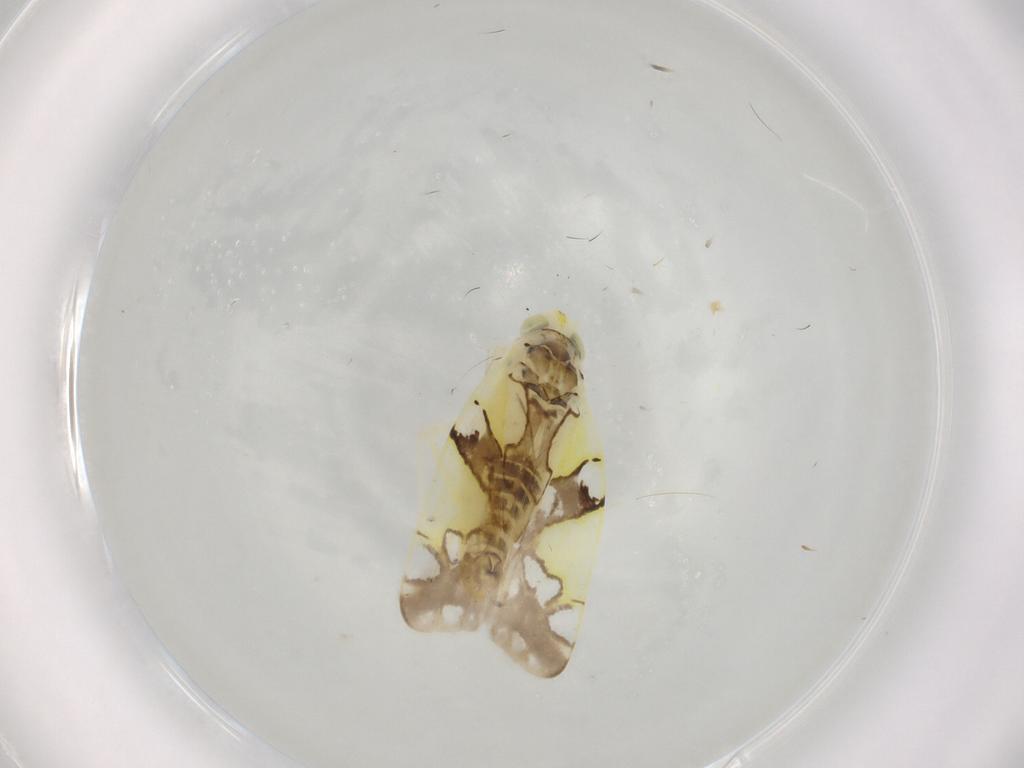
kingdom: Animalia
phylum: Arthropoda
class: Insecta
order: Hemiptera
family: Cicadellidae
